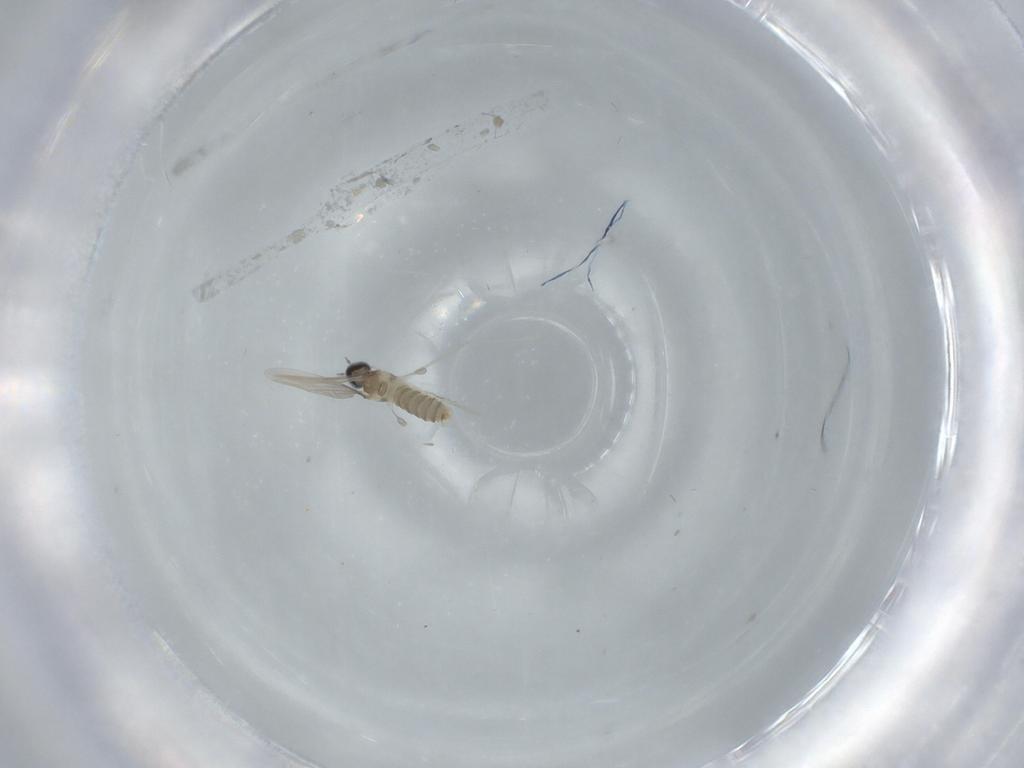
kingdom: Animalia
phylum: Arthropoda
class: Insecta
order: Diptera
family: Cecidomyiidae
